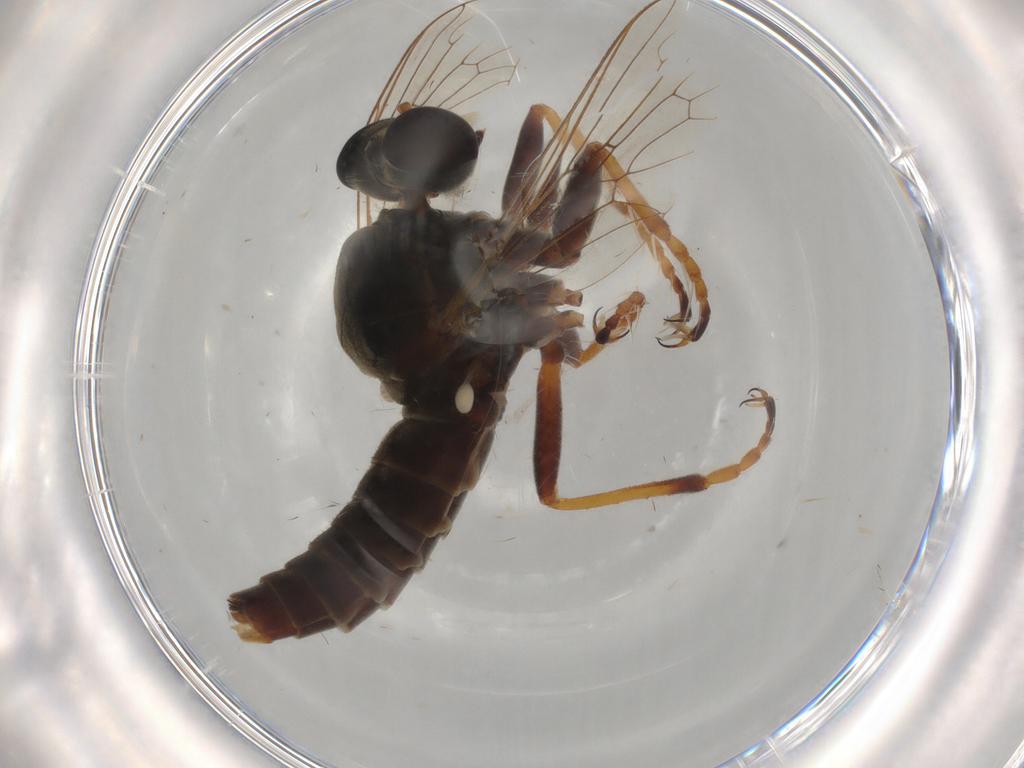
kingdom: Animalia
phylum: Arthropoda
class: Insecta
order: Diptera
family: Asilidae
